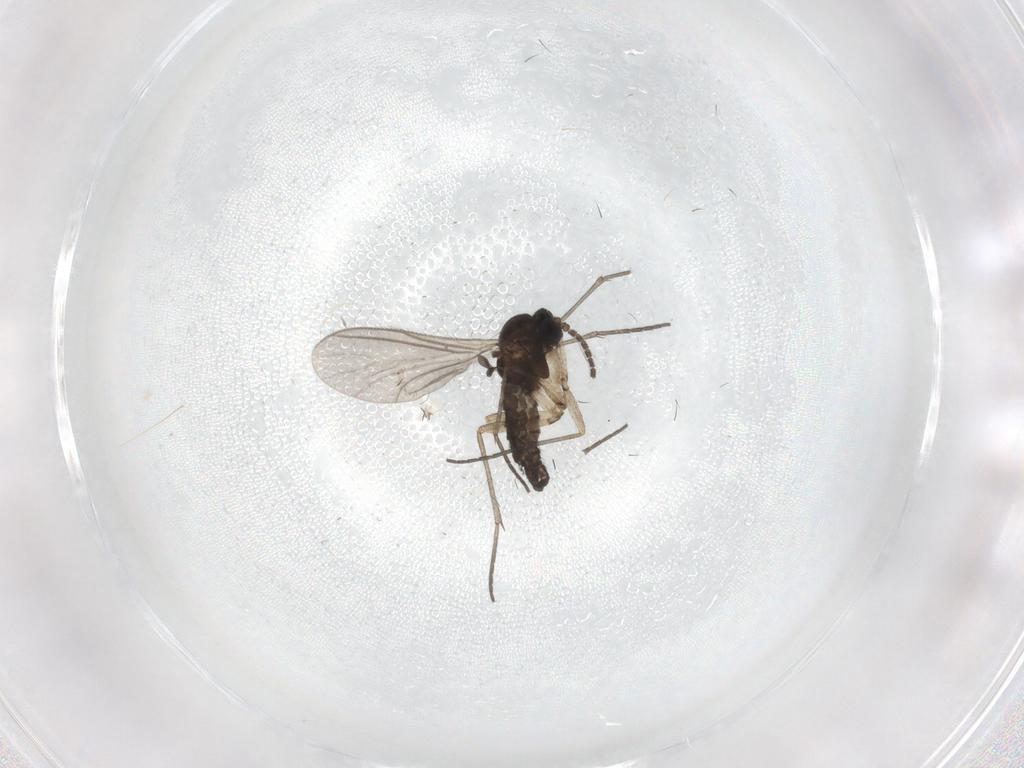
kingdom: Animalia
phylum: Arthropoda
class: Insecta
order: Diptera
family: Sciaridae
